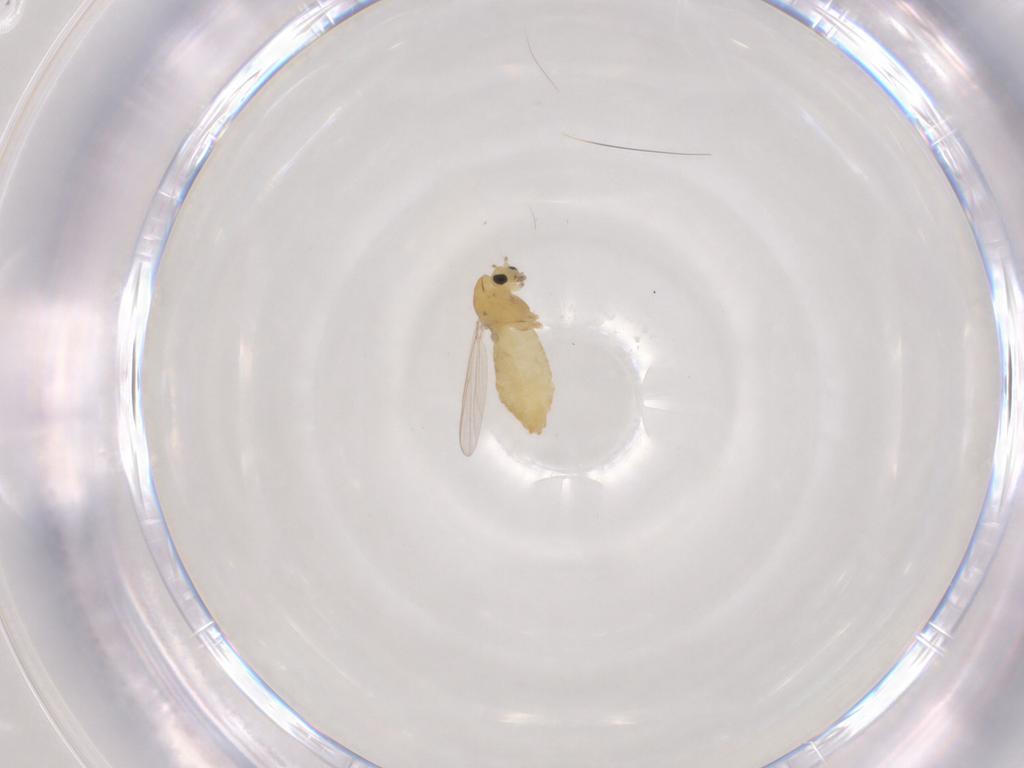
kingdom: Animalia
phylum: Arthropoda
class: Insecta
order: Diptera
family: Chironomidae
